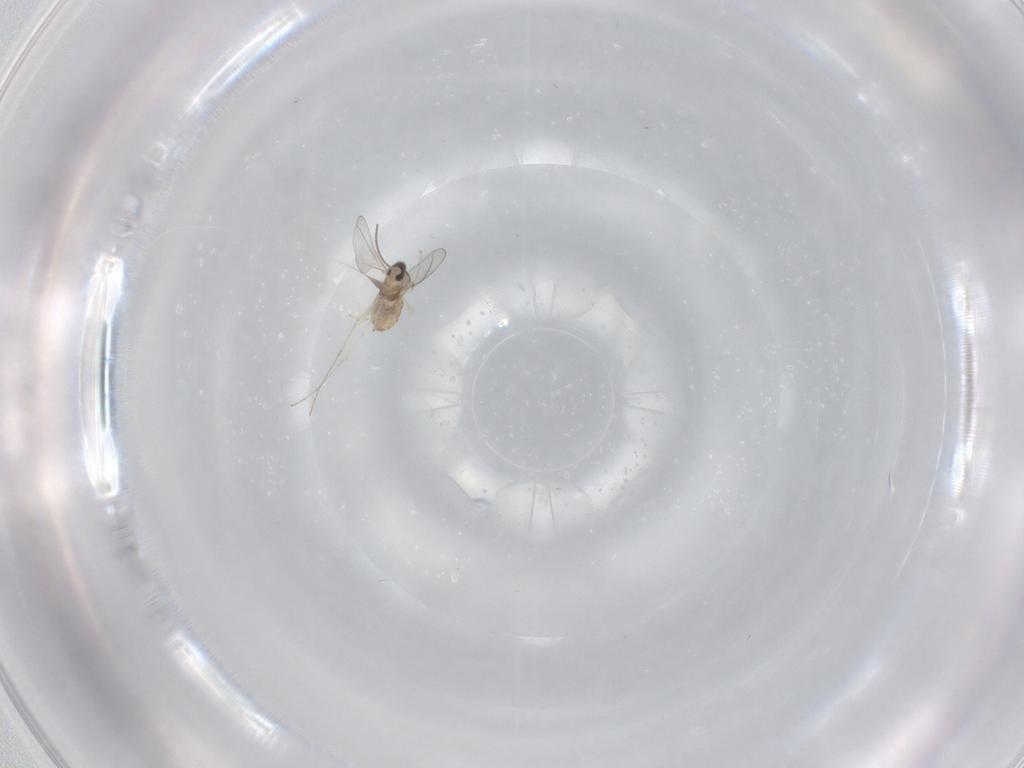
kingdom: Animalia
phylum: Arthropoda
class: Insecta
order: Diptera
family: Cecidomyiidae
